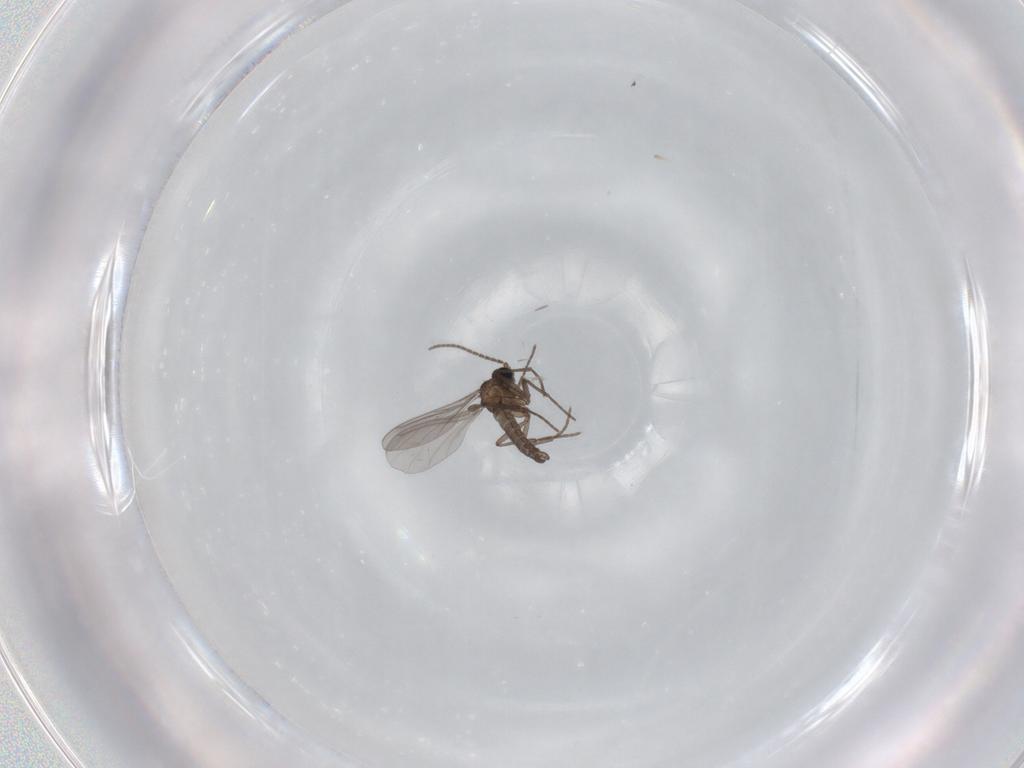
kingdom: Animalia
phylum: Arthropoda
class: Insecta
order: Diptera
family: Sciaridae
